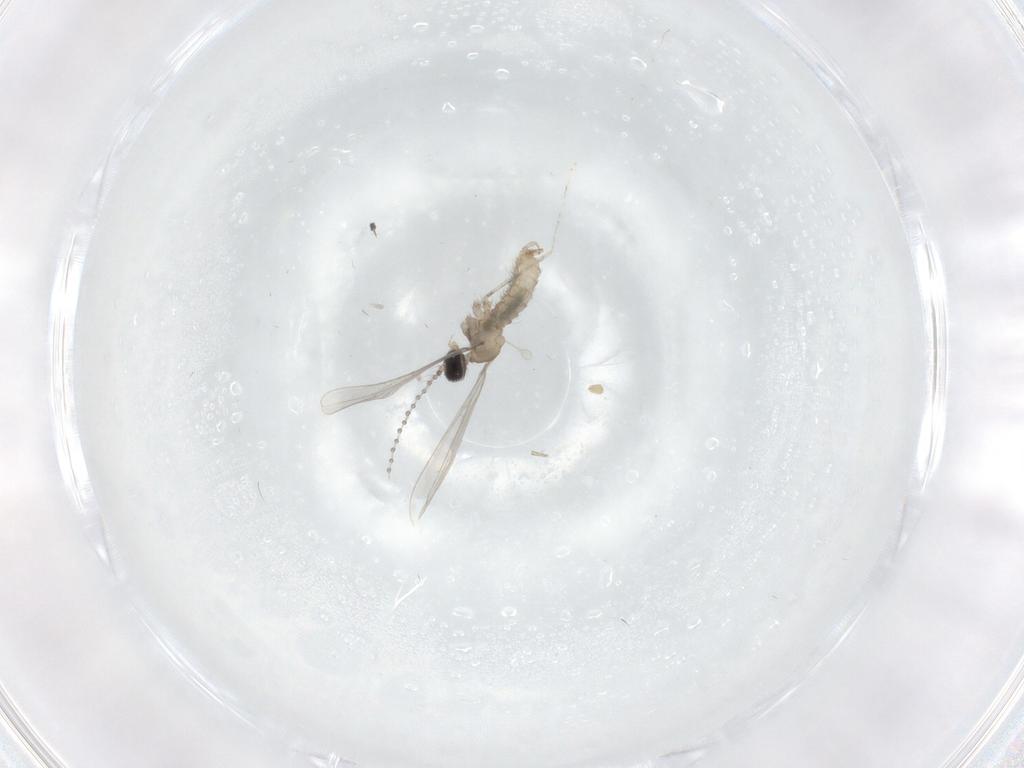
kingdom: Animalia
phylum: Arthropoda
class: Insecta
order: Diptera
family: Cecidomyiidae
